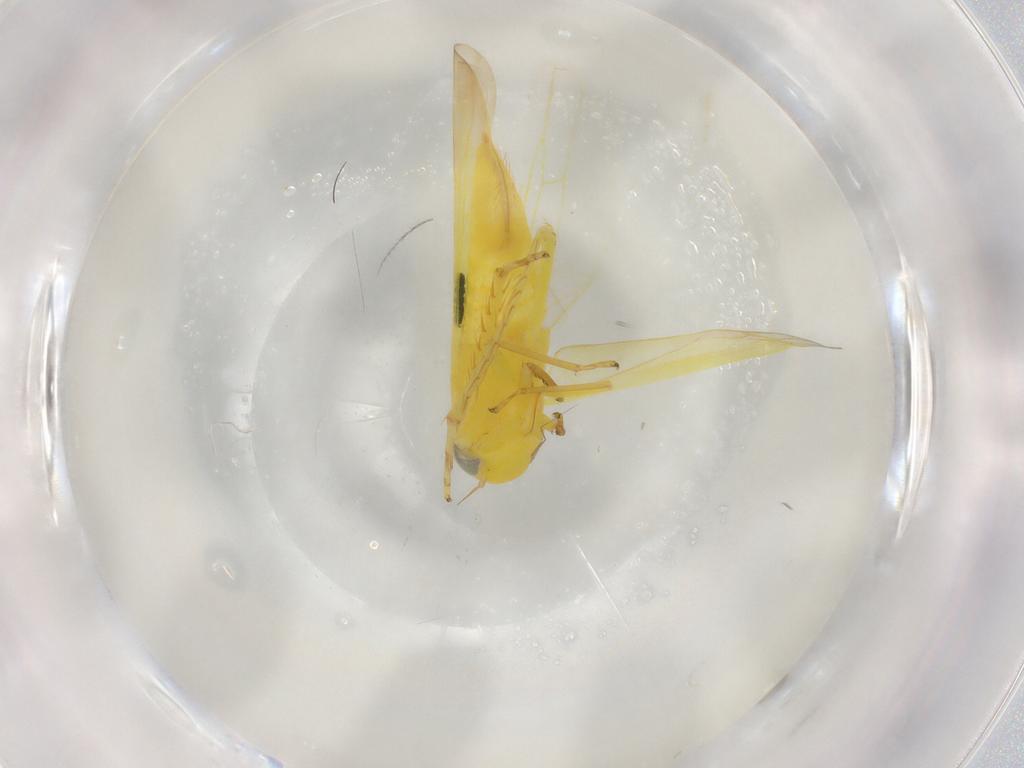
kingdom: Animalia
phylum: Arthropoda
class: Insecta
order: Hemiptera
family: Cicadellidae
